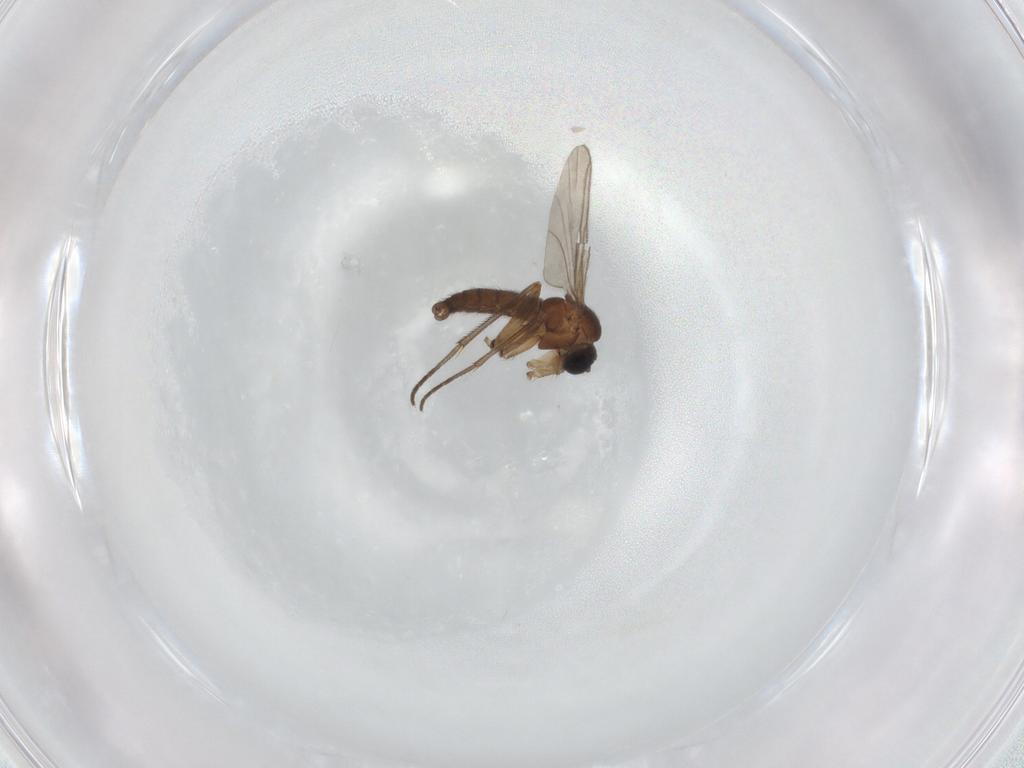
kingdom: Animalia
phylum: Arthropoda
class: Insecta
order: Diptera
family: Sciaridae
